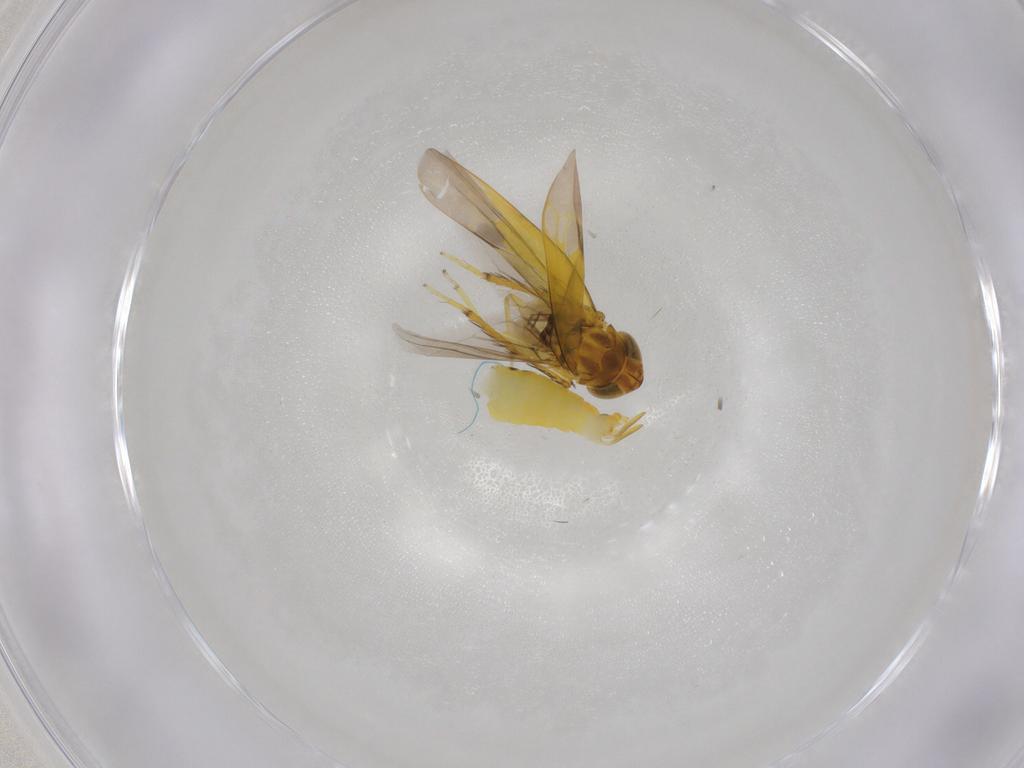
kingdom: Animalia
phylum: Arthropoda
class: Insecta
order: Hemiptera
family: Cicadellidae
